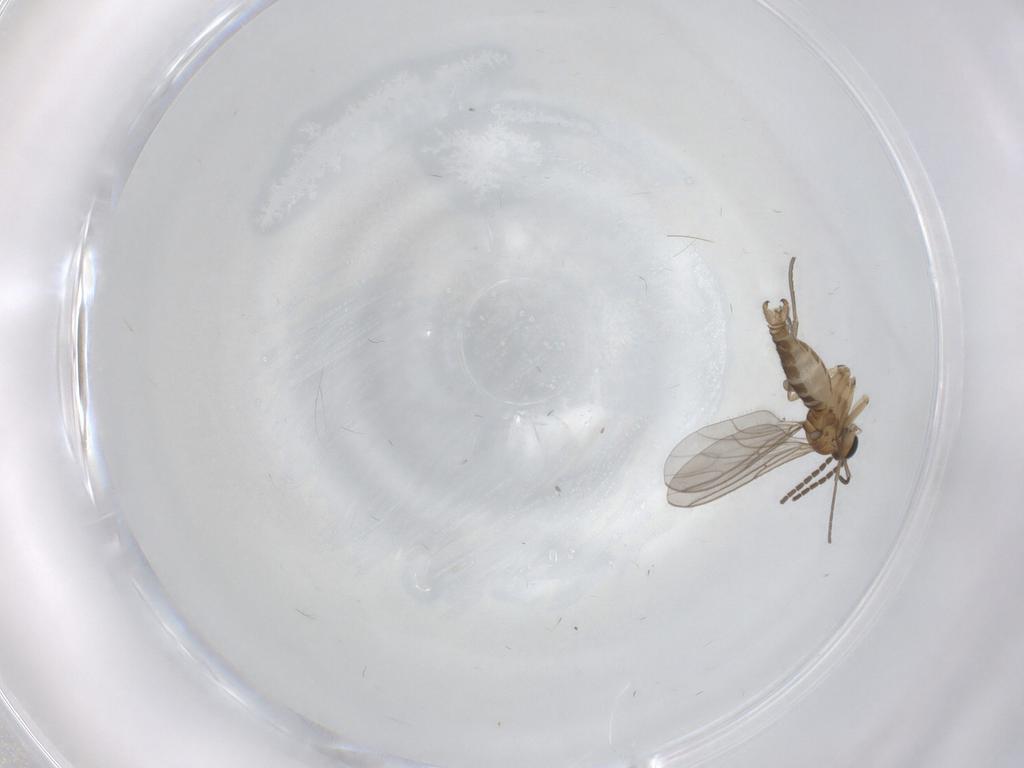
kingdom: Animalia
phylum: Arthropoda
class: Insecta
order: Diptera
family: Sciaridae
